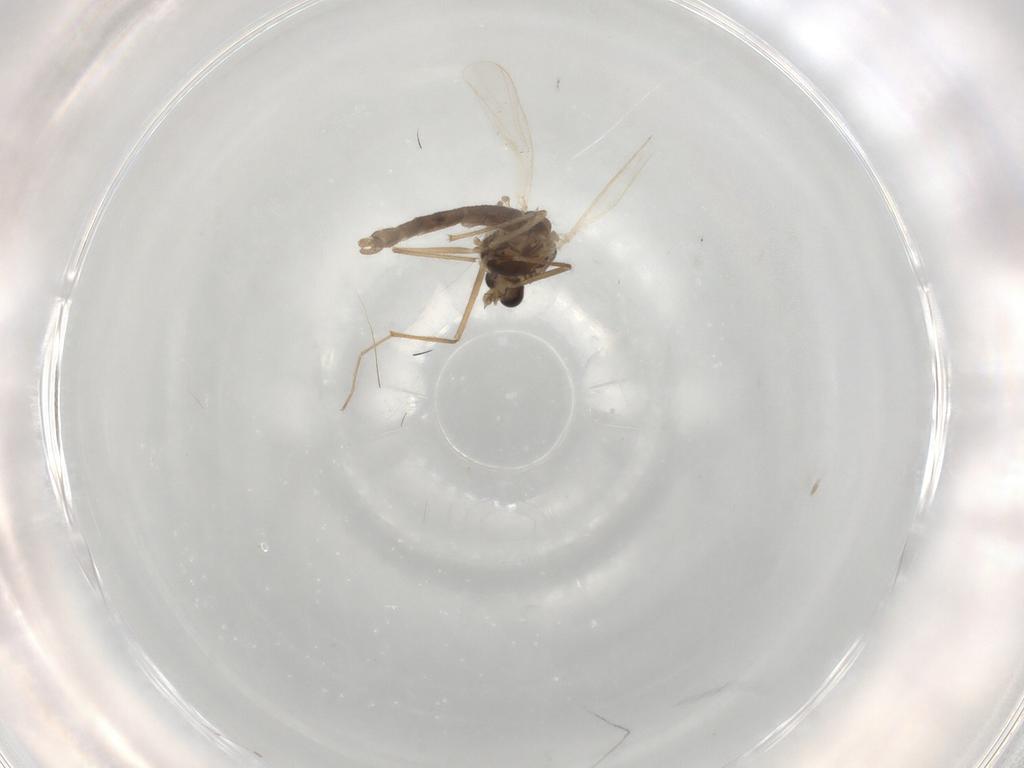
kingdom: Animalia
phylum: Arthropoda
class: Insecta
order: Diptera
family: Chironomidae
